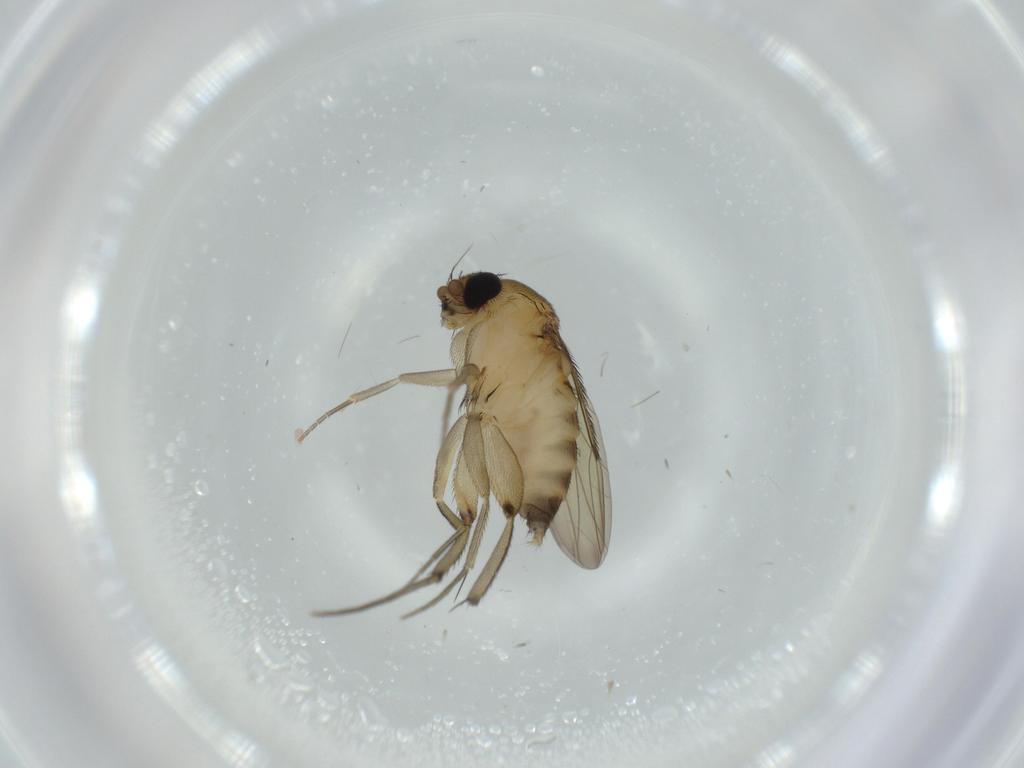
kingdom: Animalia
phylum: Arthropoda
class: Insecta
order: Diptera
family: Phoridae
